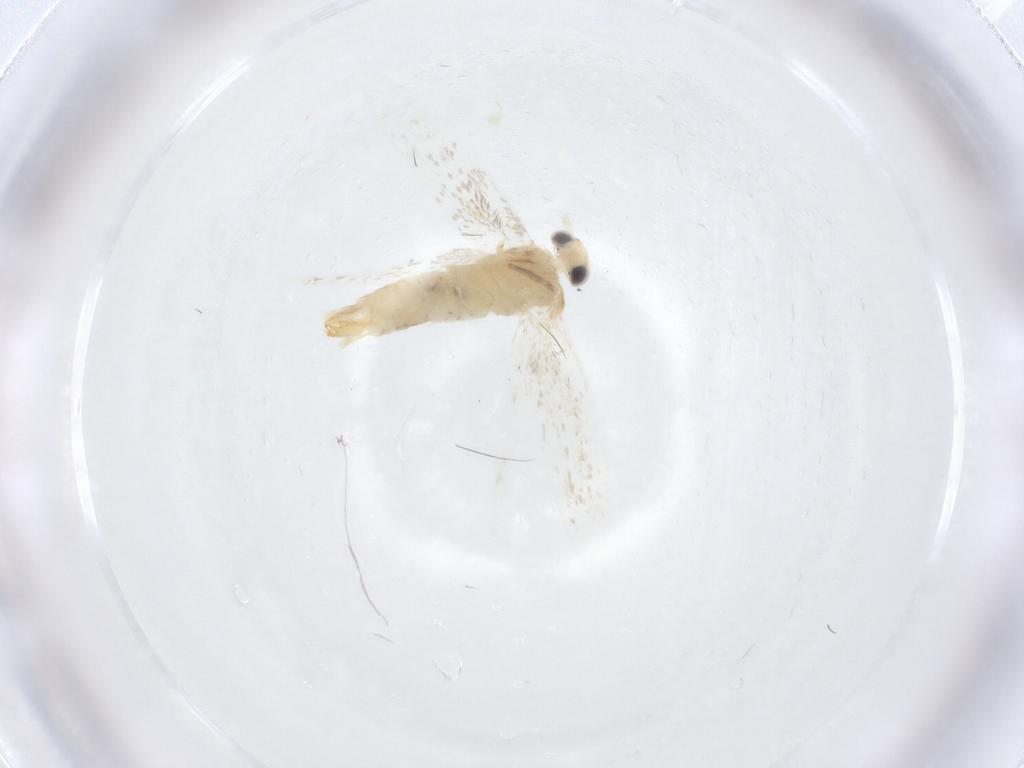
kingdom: Animalia
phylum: Arthropoda
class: Insecta
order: Lepidoptera
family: Gracillariidae
